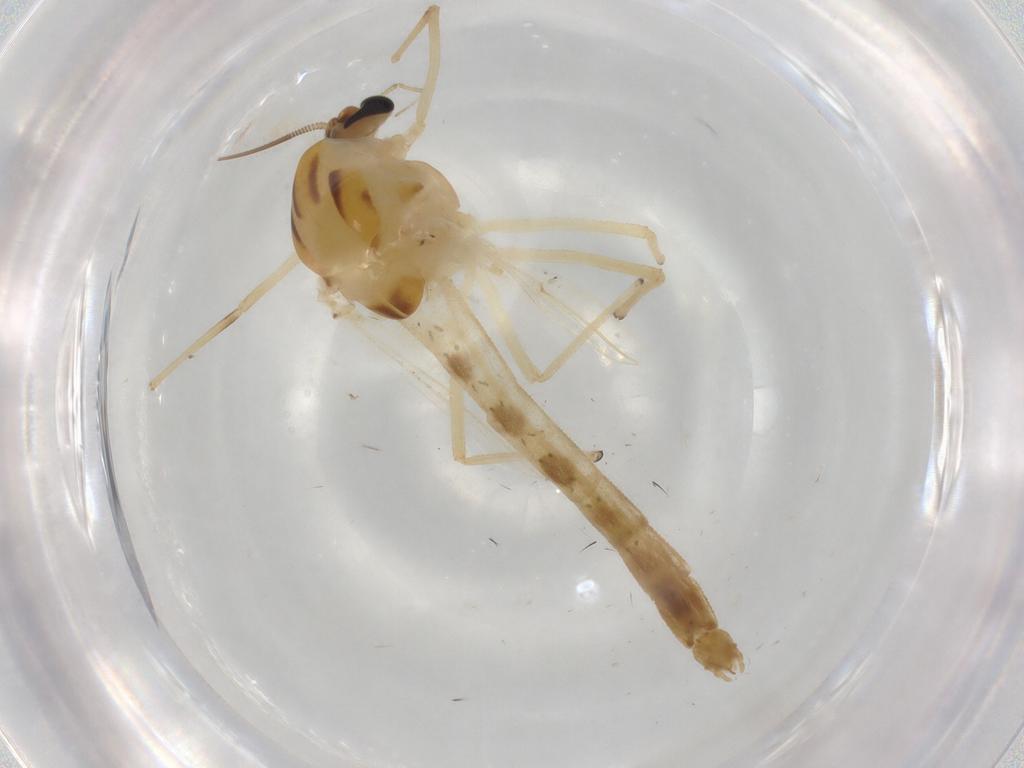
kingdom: Animalia
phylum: Arthropoda
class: Insecta
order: Diptera
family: Chironomidae
